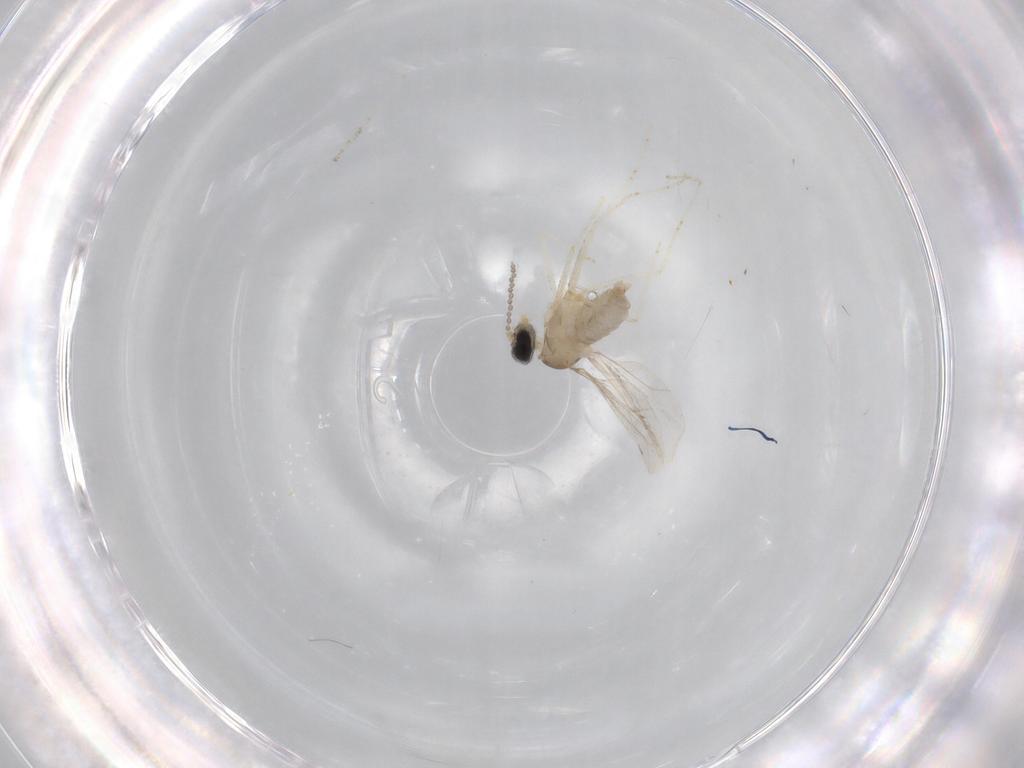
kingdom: Animalia
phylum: Arthropoda
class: Insecta
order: Diptera
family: Cecidomyiidae
